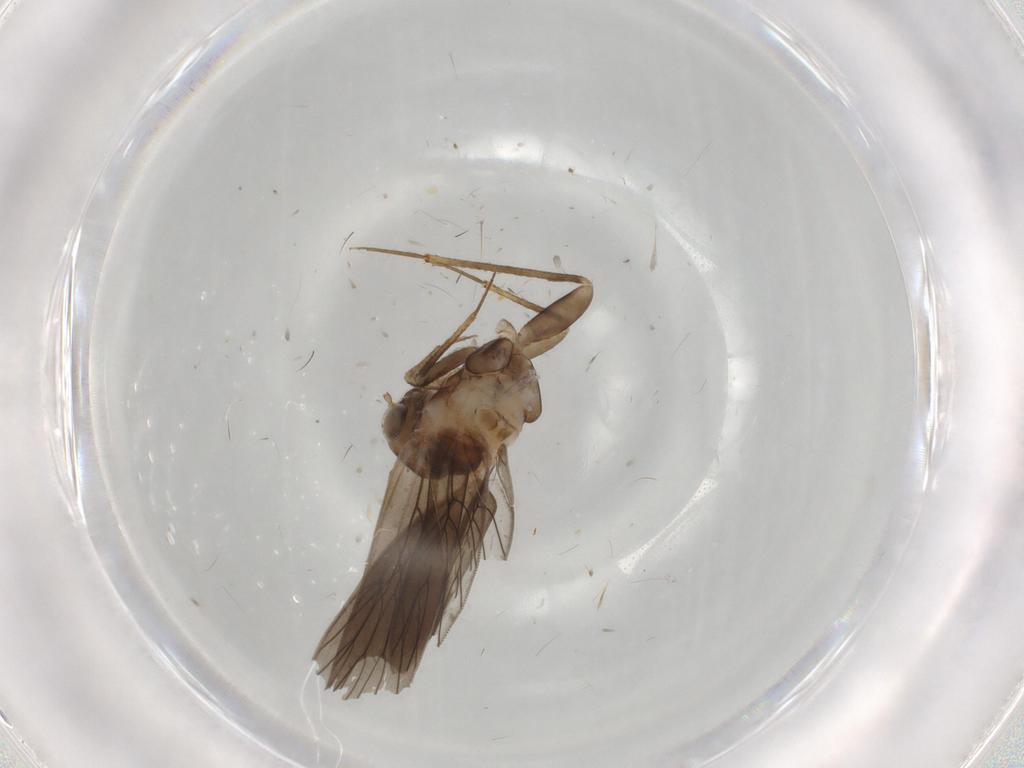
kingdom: Animalia
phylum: Arthropoda
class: Insecta
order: Psocodea
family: Lepidopsocidae
